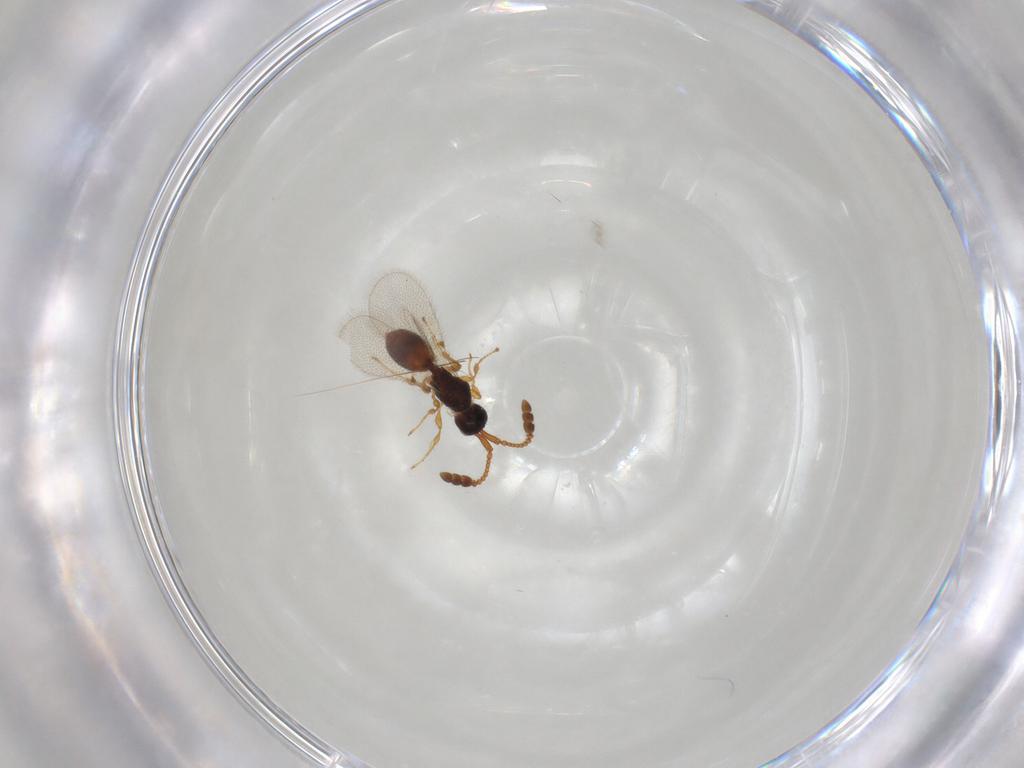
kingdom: Animalia
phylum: Arthropoda
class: Insecta
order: Hymenoptera
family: Diapriidae
